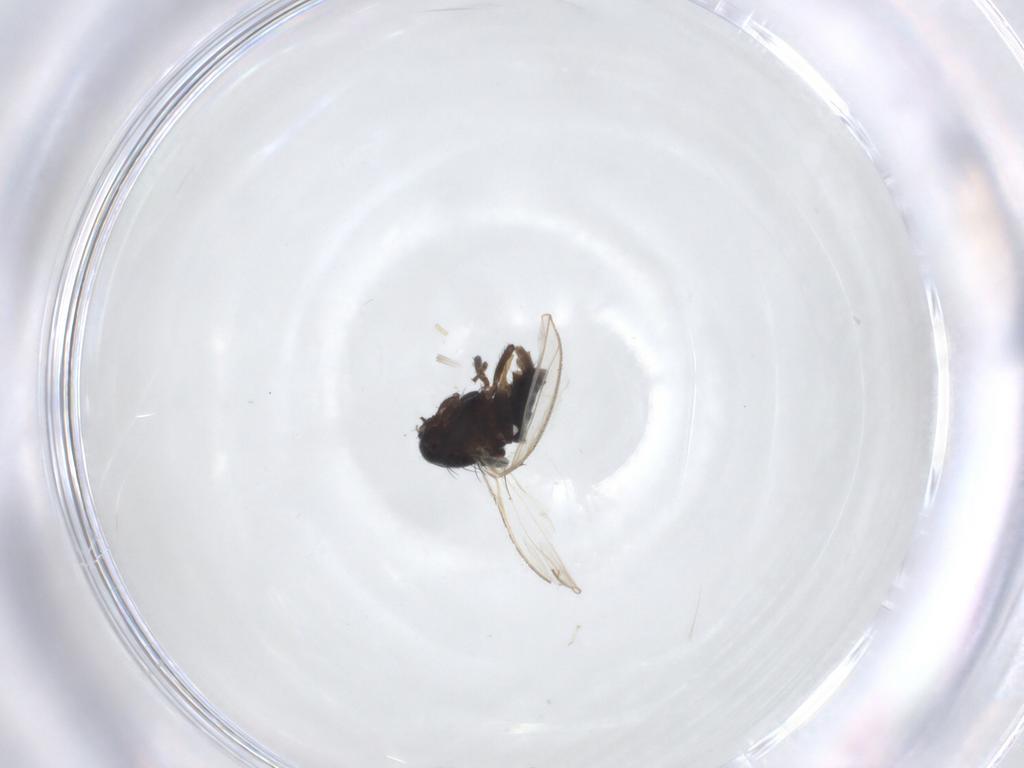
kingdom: Animalia
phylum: Arthropoda
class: Insecta
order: Diptera
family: Carnidae
